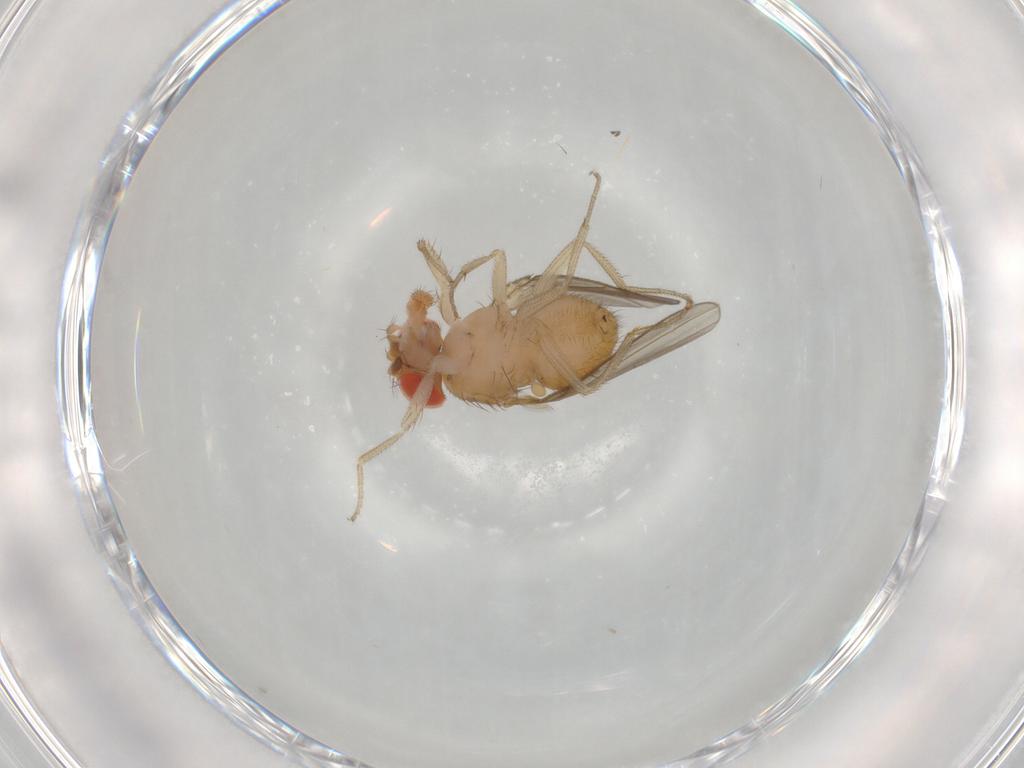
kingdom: Animalia
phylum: Arthropoda
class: Insecta
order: Diptera
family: Drosophilidae
